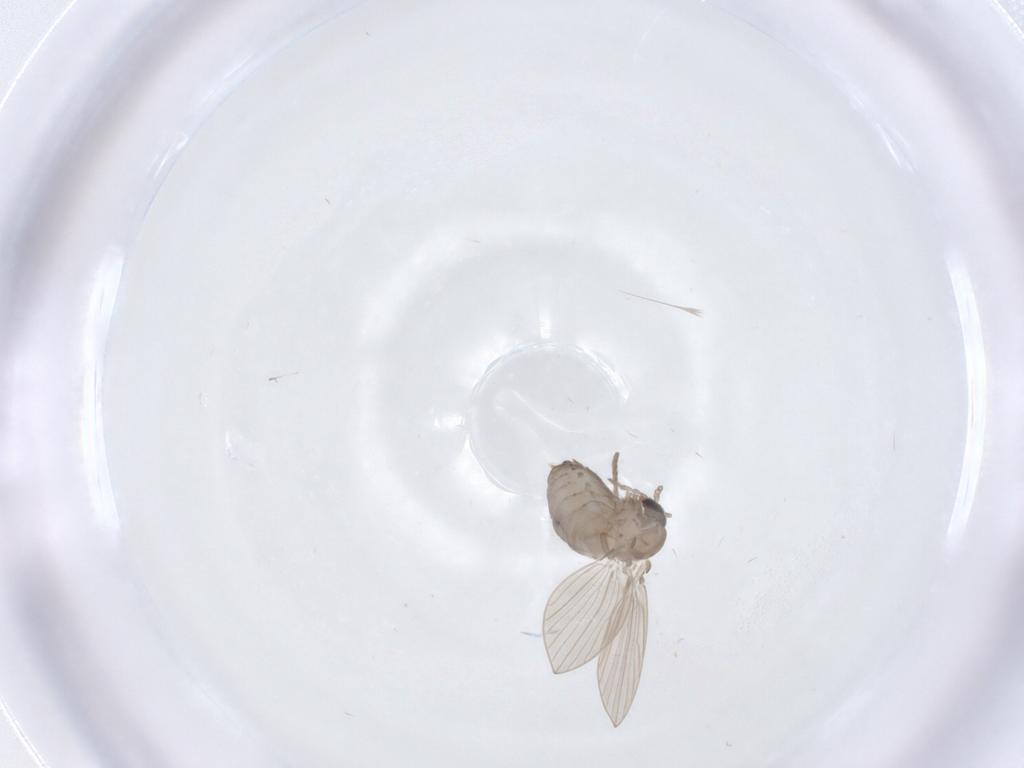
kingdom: Animalia
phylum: Arthropoda
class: Insecta
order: Diptera
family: Psychodidae
